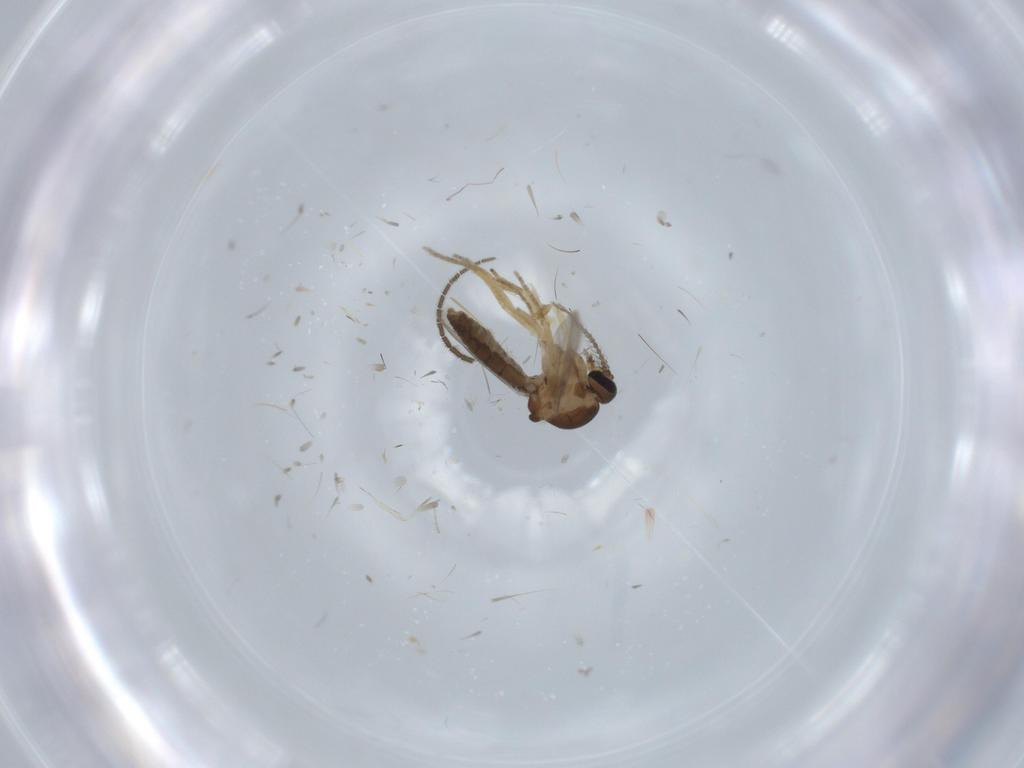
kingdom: Animalia
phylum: Arthropoda
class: Insecta
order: Diptera
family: Ceratopogonidae
